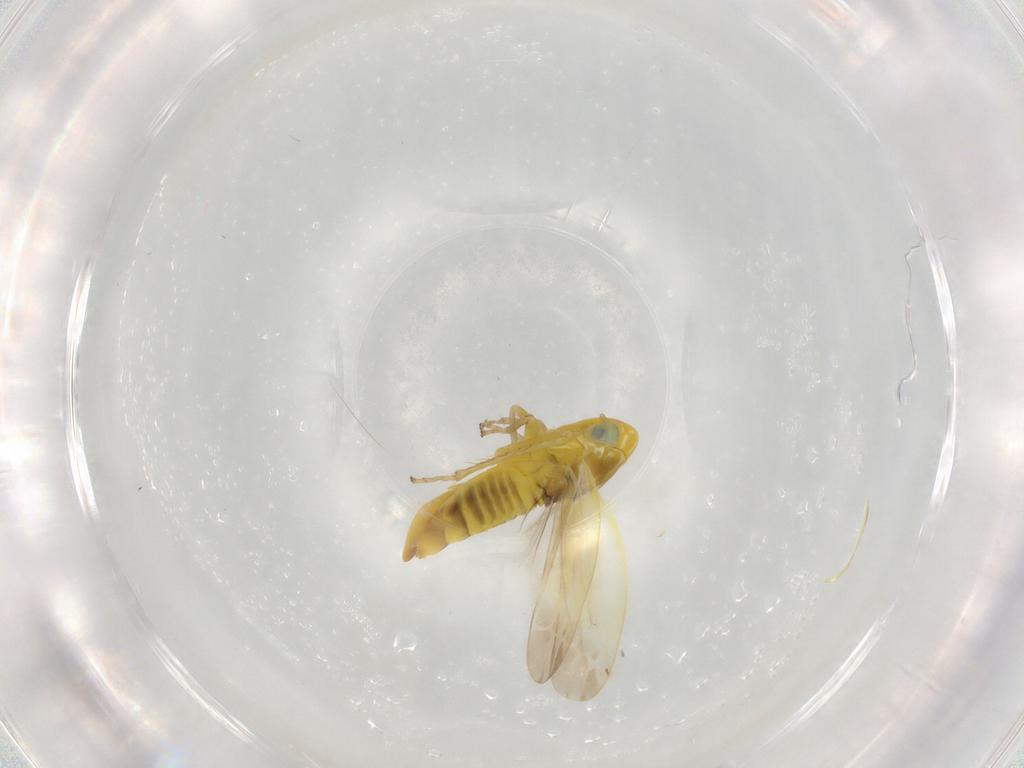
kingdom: Animalia
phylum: Arthropoda
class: Insecta
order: Hemiptera
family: Cicadellidae
